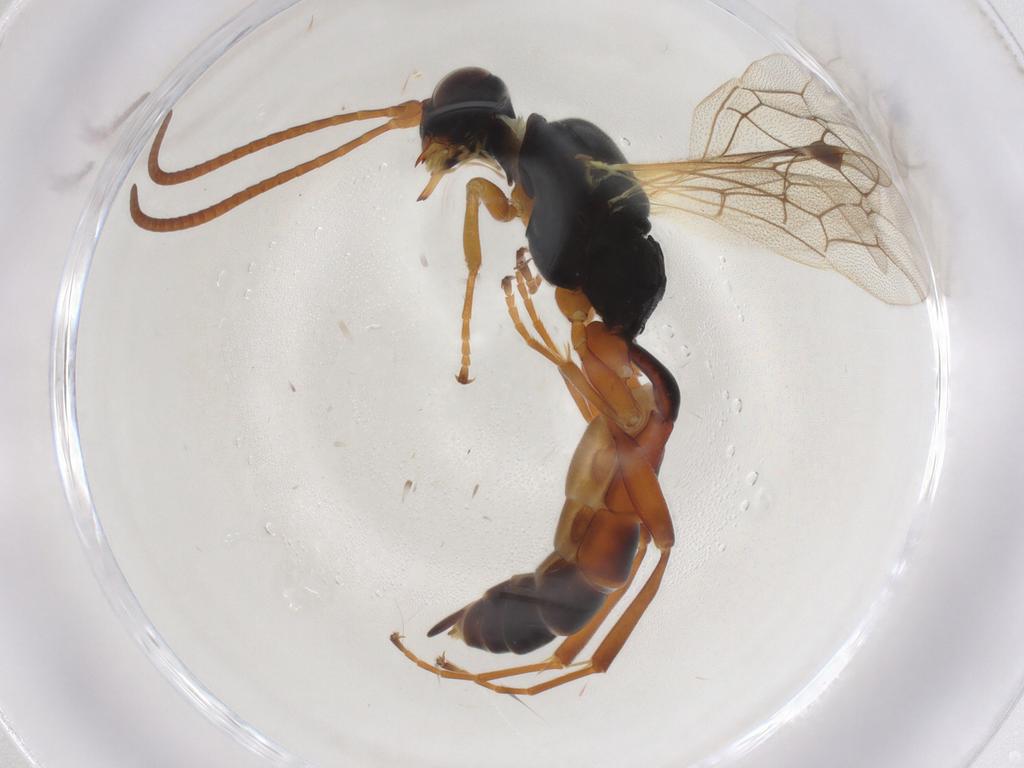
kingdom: Animalia
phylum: Arthropoda
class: Insecta
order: Hymenoptera
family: Ichneumonidae
